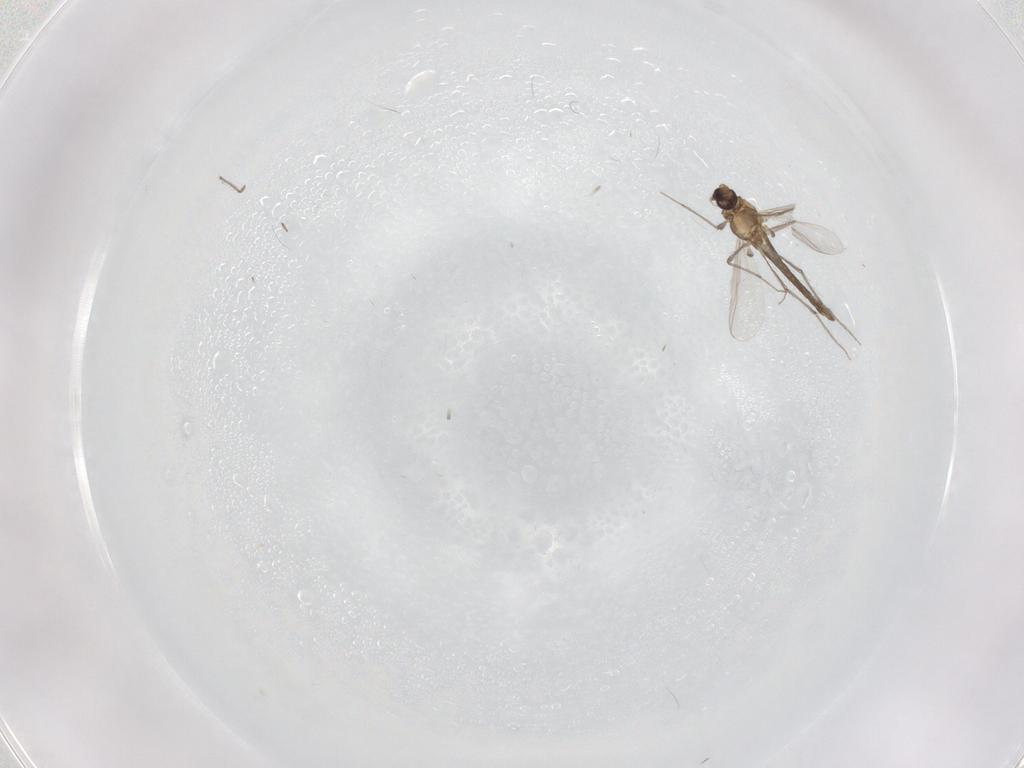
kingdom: Animalia
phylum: Arthropoda
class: Insecta
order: Diptera
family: Chironomidae
